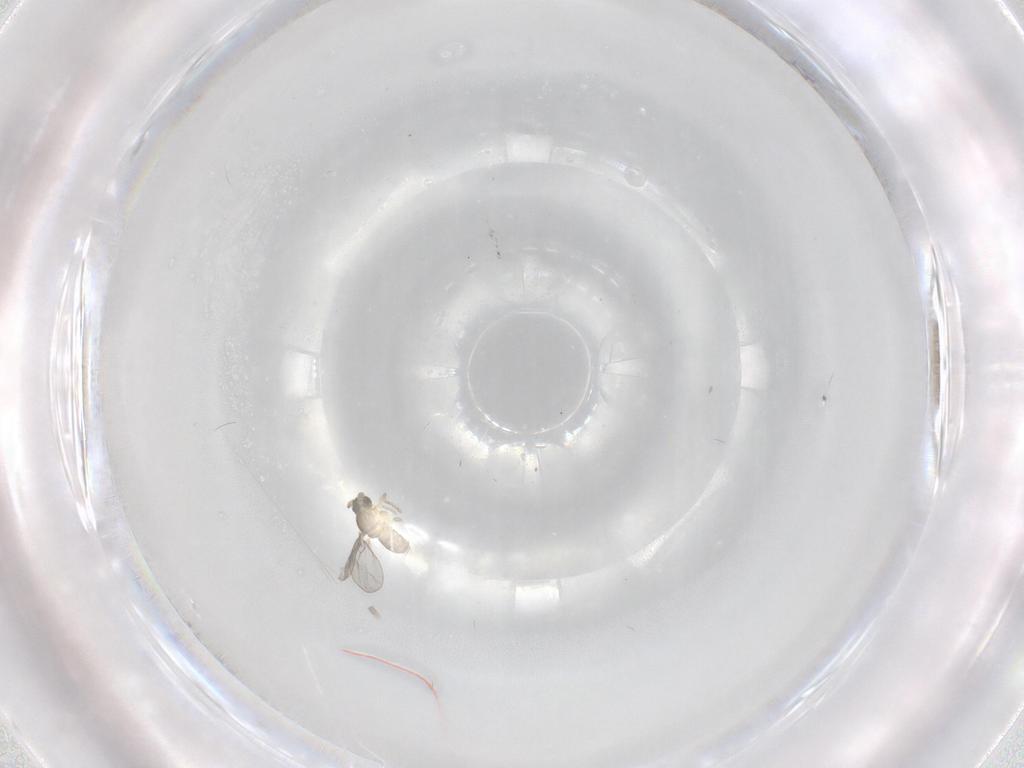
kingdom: Animalia
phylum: Arthropoda
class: Insecta
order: Diptera
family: Cecidomyiidae
